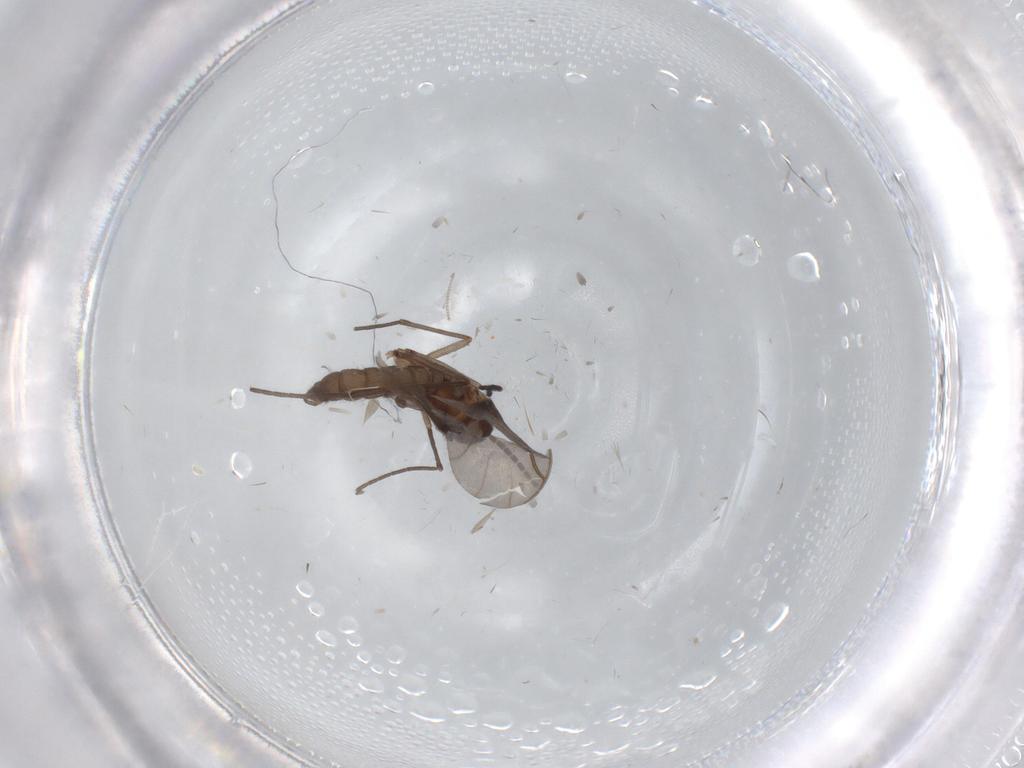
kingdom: Animalia
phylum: Arthropoda
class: Insecta
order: Diptera
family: Chironomidae
